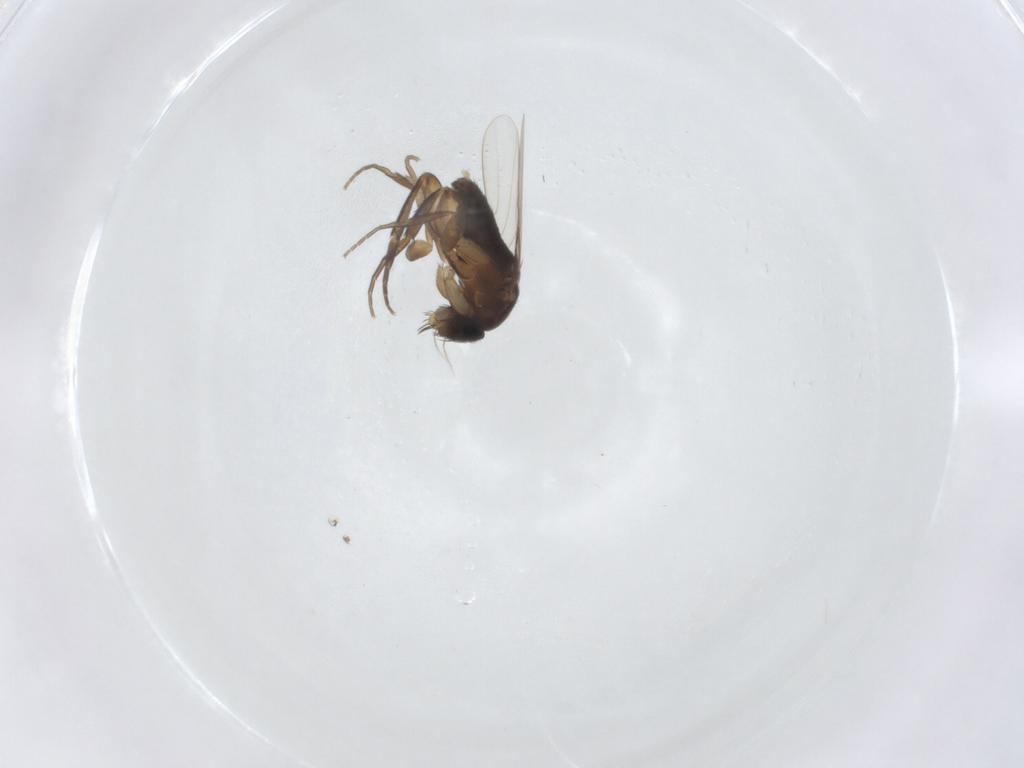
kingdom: Animalia
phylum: Arthropoda
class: Insecta
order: Diptera
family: Phoridae
